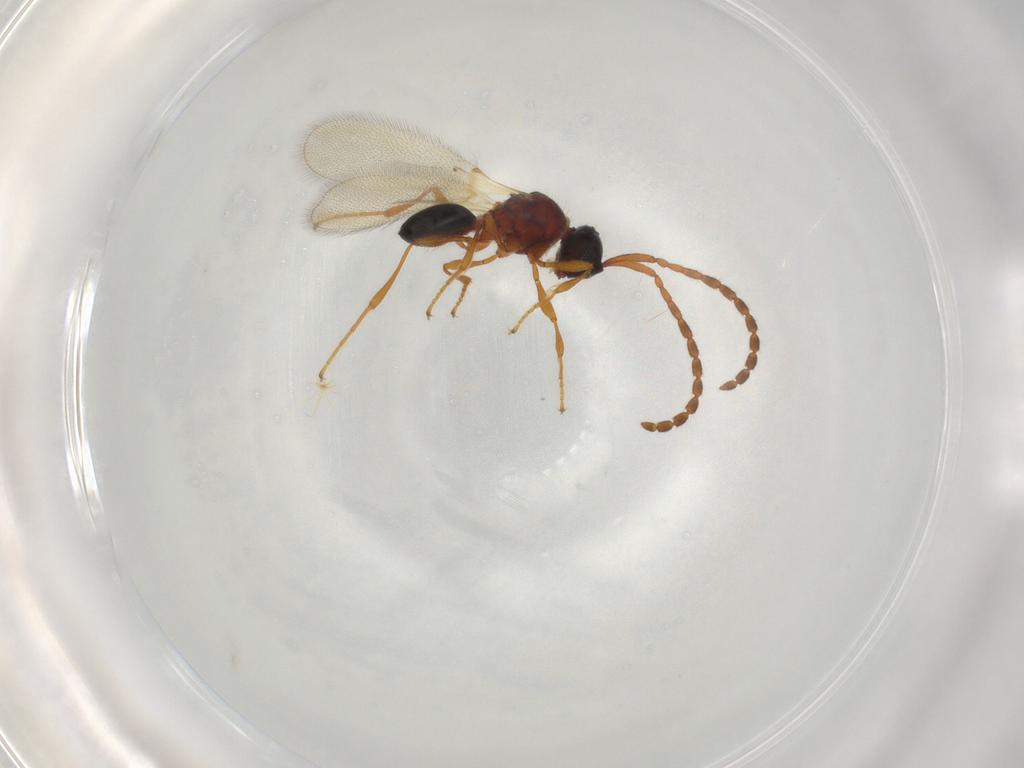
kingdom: Animalia
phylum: Arthropoda
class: Insecta
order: Hymenoptera
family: Diapriidae
